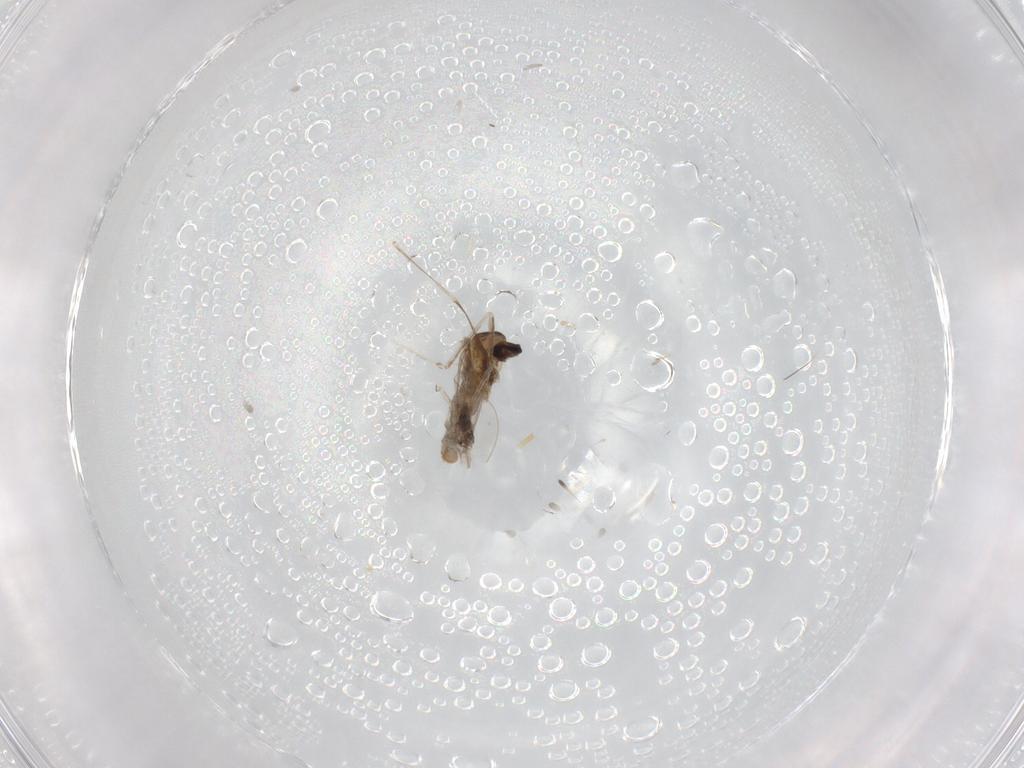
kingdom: Animalia
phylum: Arthropoda
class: Insecta
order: Diptera
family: Cecidomyiidae
